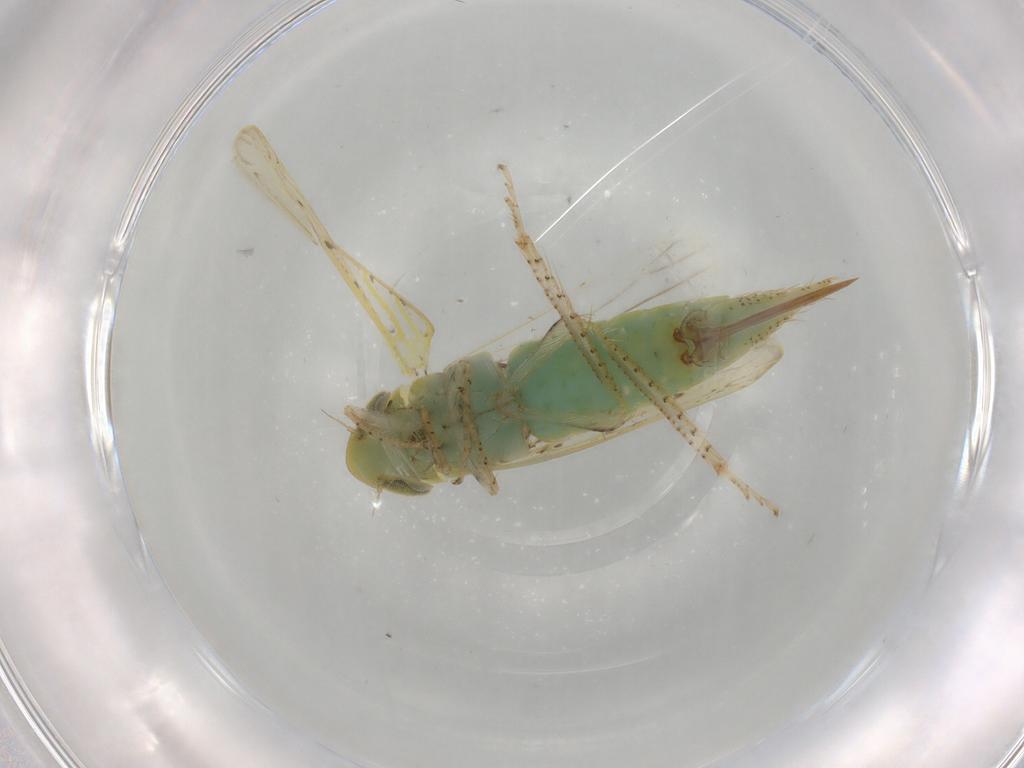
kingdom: Animalia
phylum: Arthropoda
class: Insecta
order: Hemiptera
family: Cicadellidae
